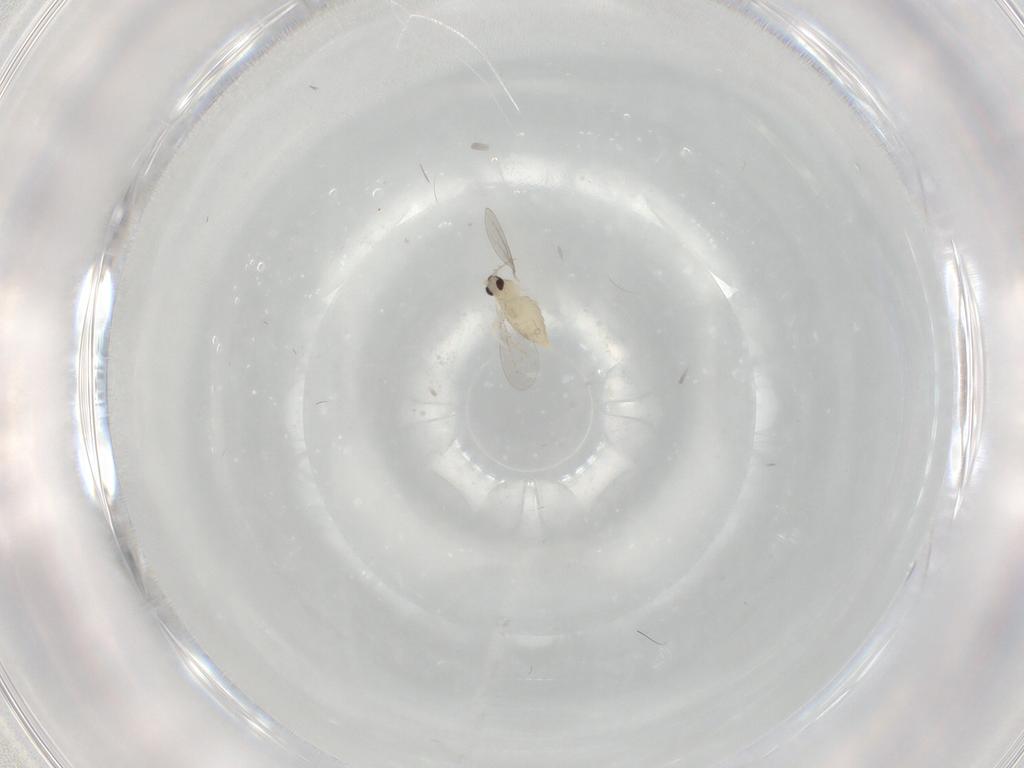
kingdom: Animalia
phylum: Arthropoda
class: Insecta
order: Diptera
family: Cecidomyiidae
